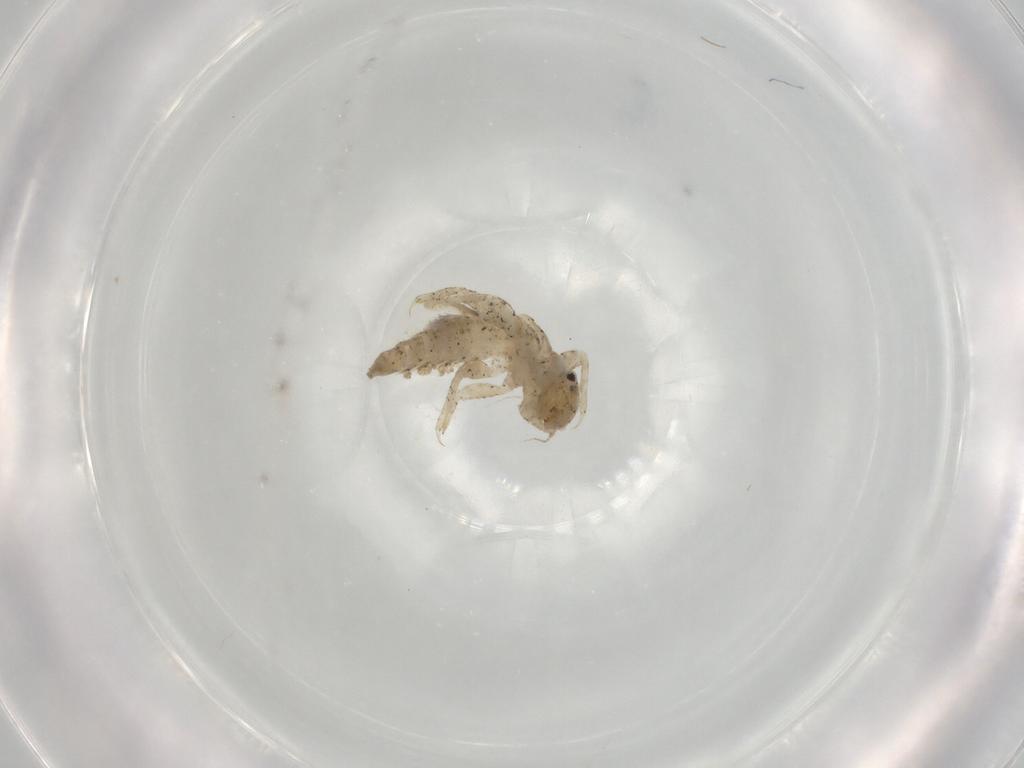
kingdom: Animalia
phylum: Arthropoda
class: Insecta
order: Ephemeroptera
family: Caenidae
